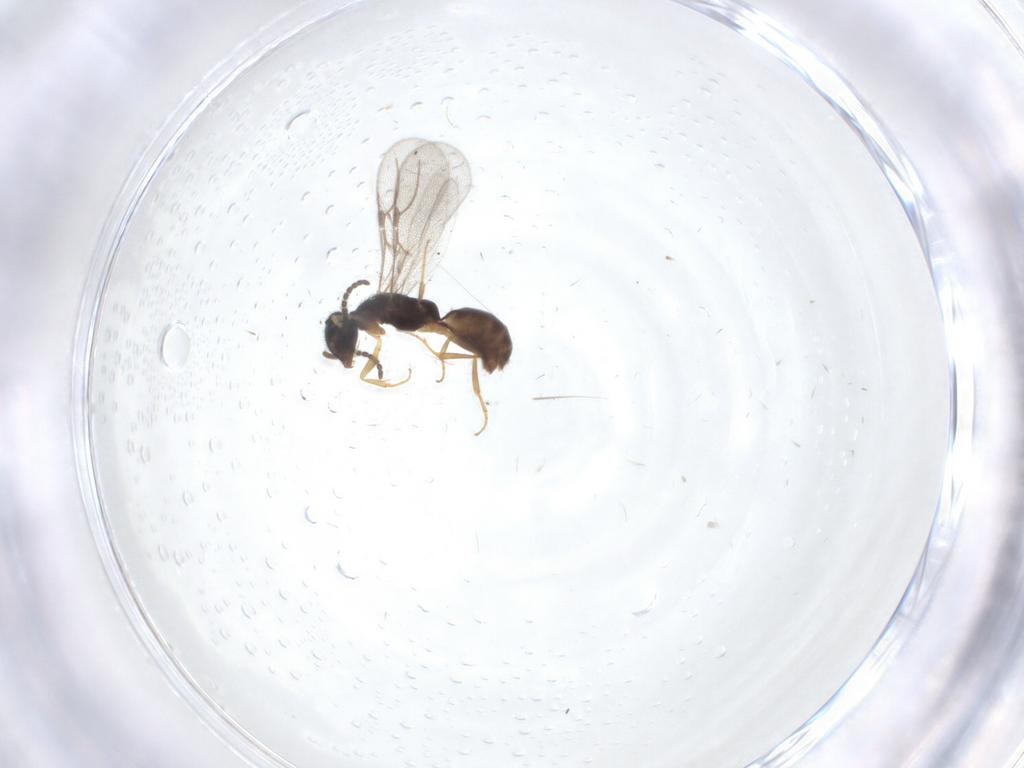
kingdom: Animalia
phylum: Arthropoda
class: Insecta
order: Hymenoptera
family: Bethylidae
